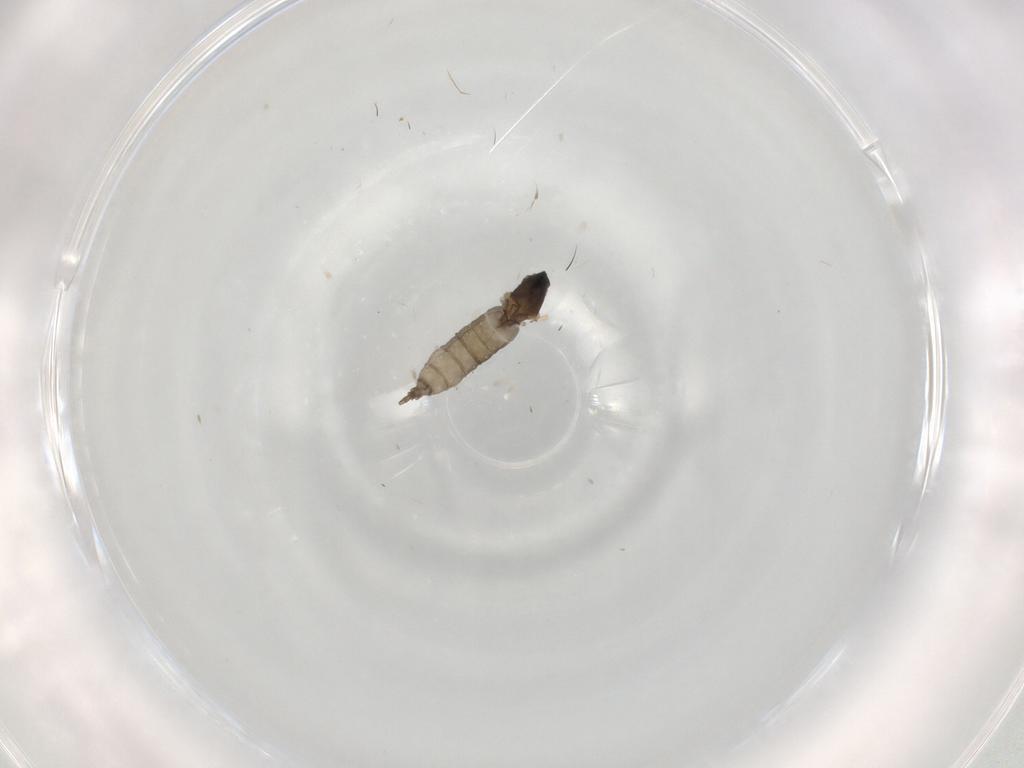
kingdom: Animalia
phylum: Arthropoda
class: Insecta
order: Diptera
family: Cecidomyiidae
